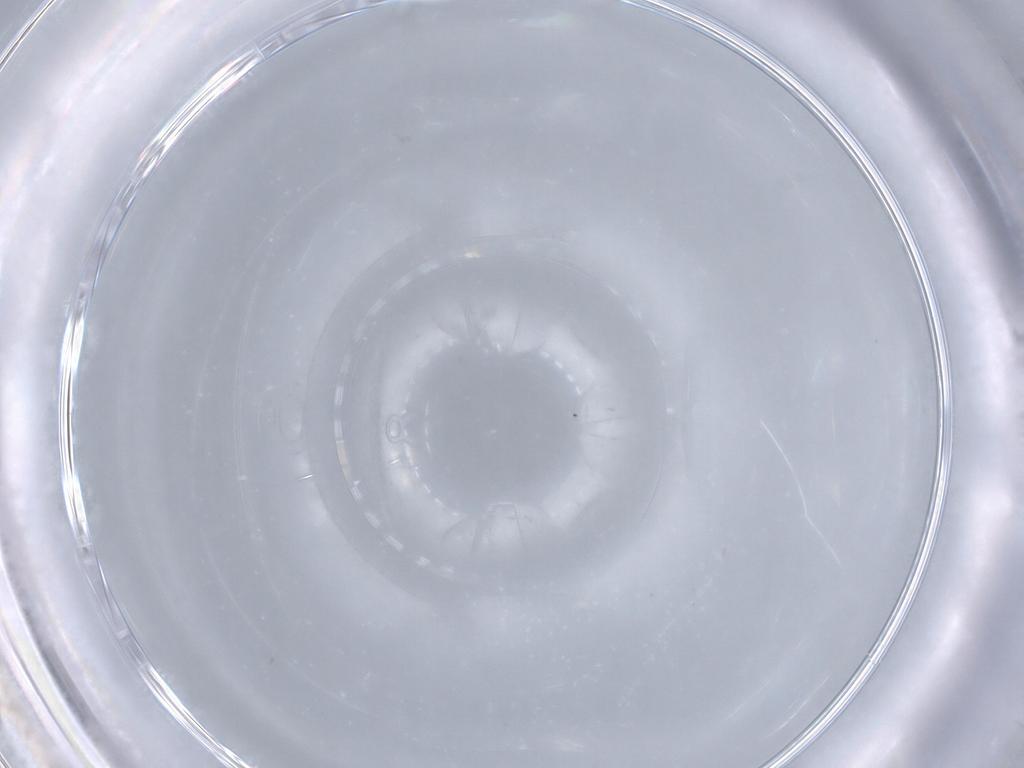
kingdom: Animalia
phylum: Arthropoda
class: Insecta
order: Diptera
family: Ceratopogonidae
